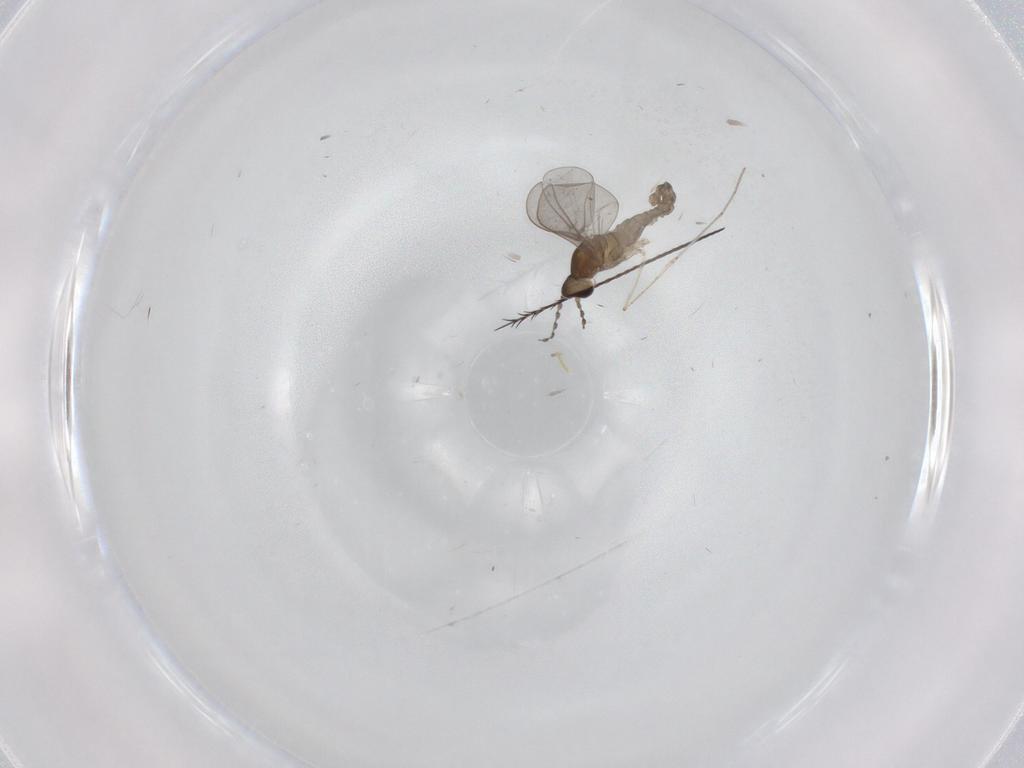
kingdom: Animalia
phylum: Arthropoda
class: Insecta
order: Diptera
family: Cecidomyiidae
